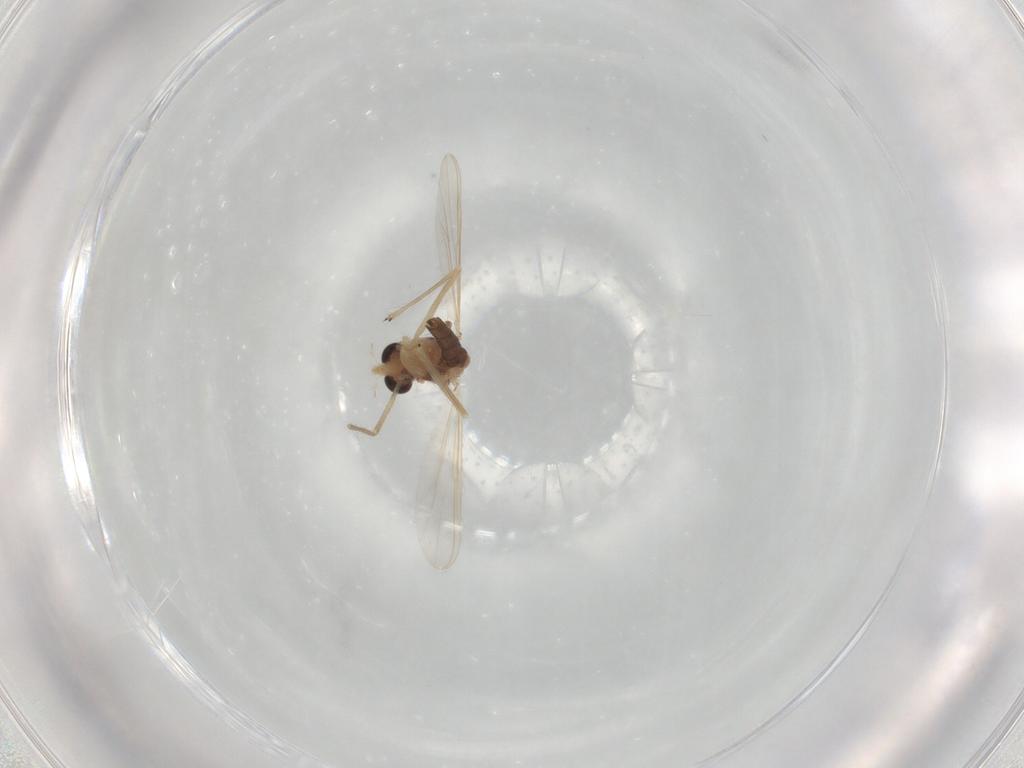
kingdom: Animalia
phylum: Arthropoda
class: Insecta
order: Diptera
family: Chironomidae
